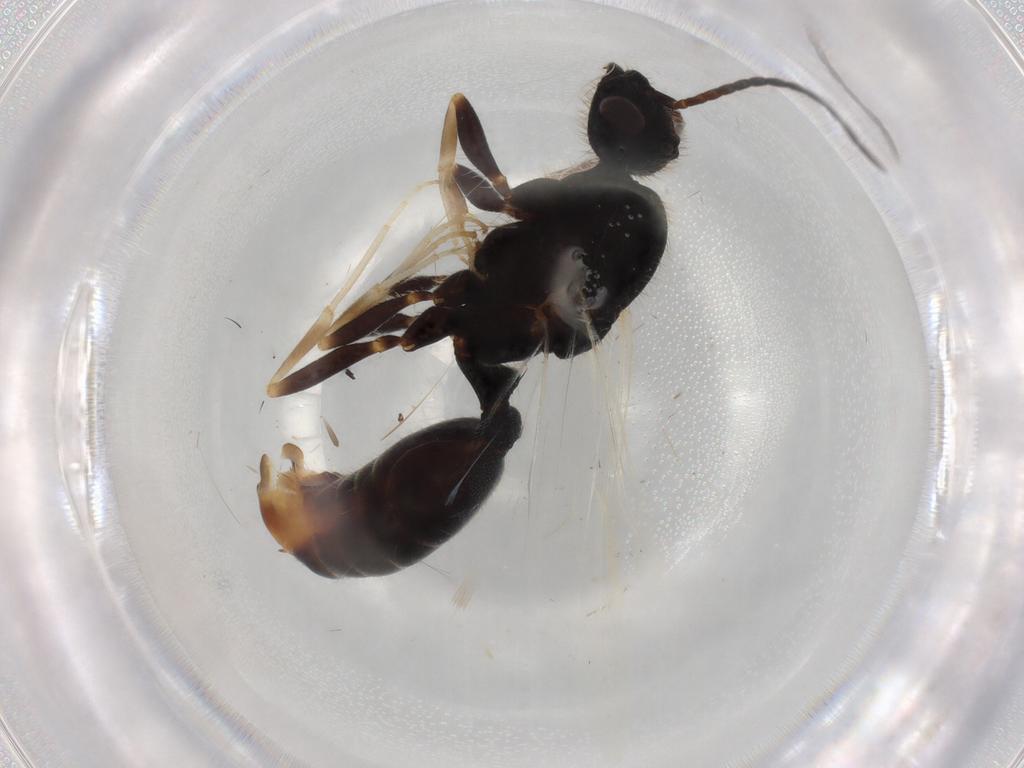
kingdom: Animalia
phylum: Arthropoda
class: Insecta
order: Hymenoptera
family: Formicidae
